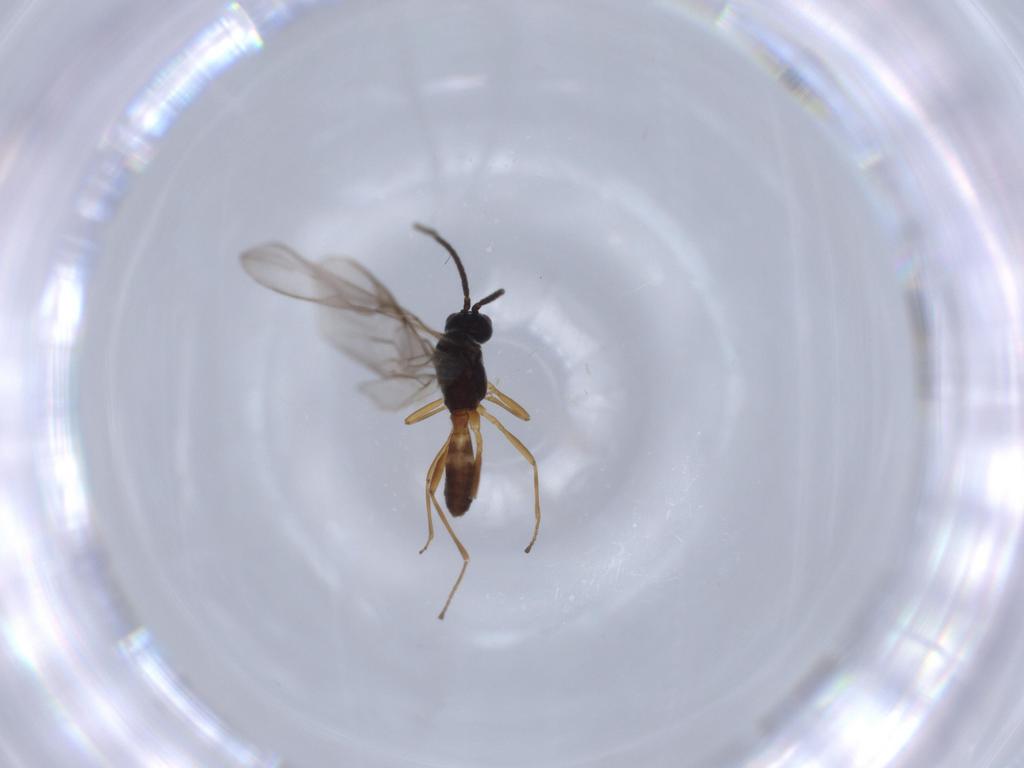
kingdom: Animalia
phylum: Arthropoda
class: Insecta
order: Hymenoptera
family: Braconidae
